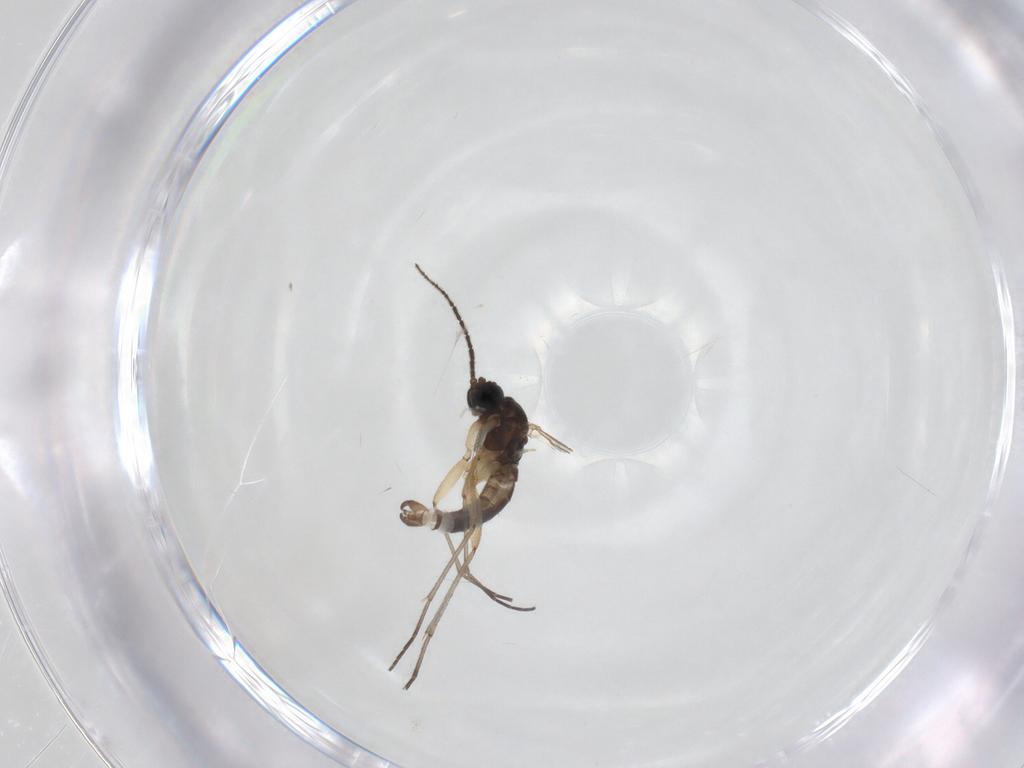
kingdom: Animalia
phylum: Arthropoda
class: Insecta
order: Diptera
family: Sciaridae
